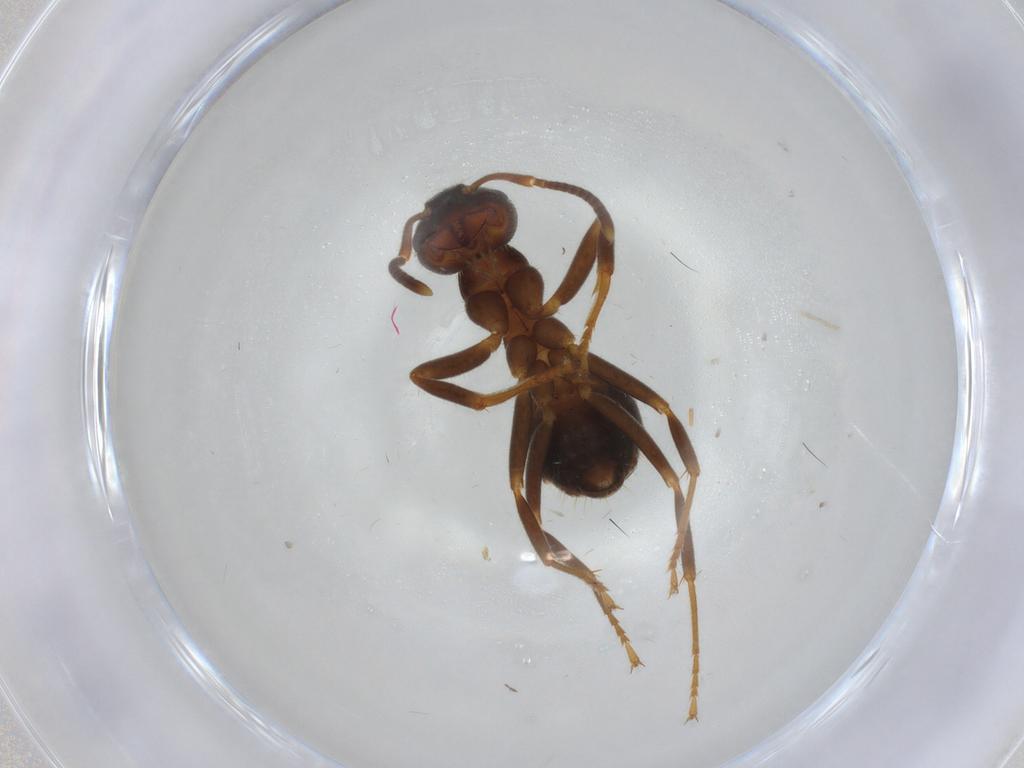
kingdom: Animalia
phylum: Arthropoda
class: Insecta
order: Hymenoptera
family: Formicidae
